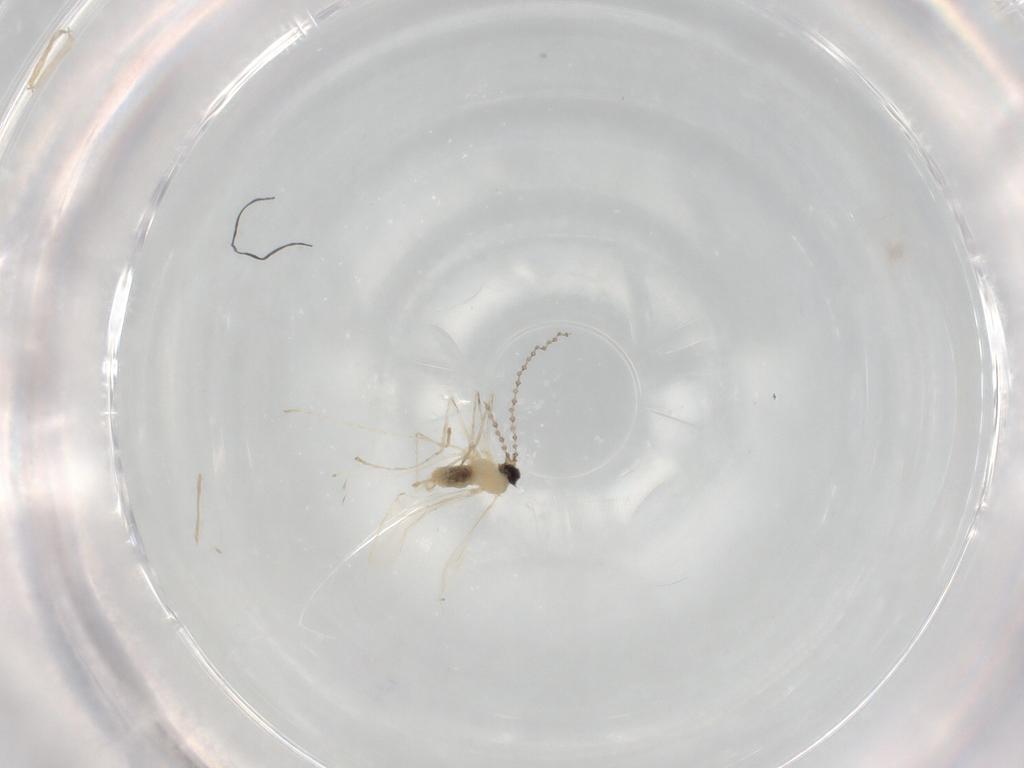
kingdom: Animalia
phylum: Arthropoda
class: Insecta
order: Diptera
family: Cecidomyiidae
